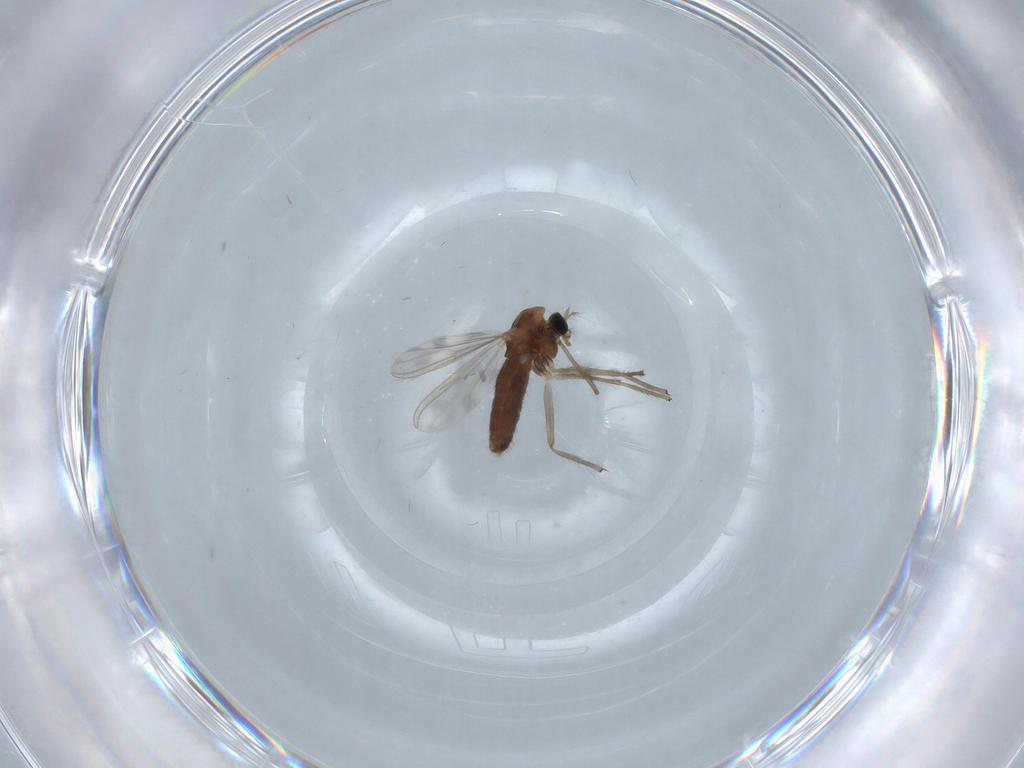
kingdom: Animalia
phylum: Arthropoda
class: Insecta
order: Diptera
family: Chironomidae
